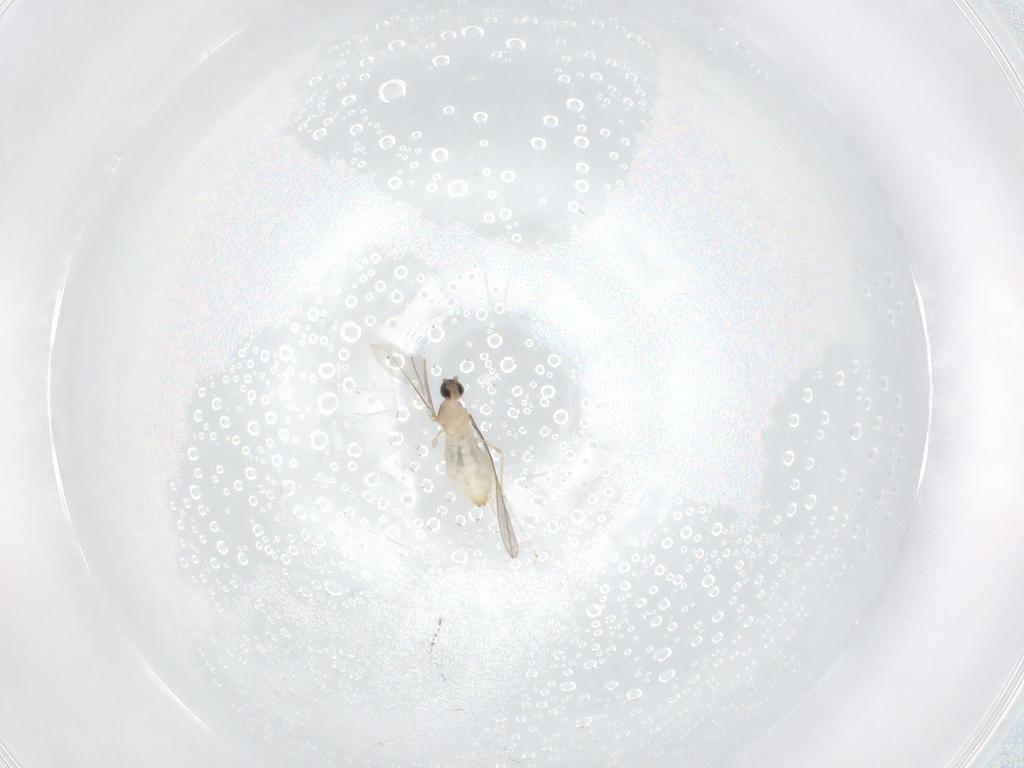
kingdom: Animalia
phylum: Arthropoda
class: Insecta
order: Diptera
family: Cecidomyiidae
